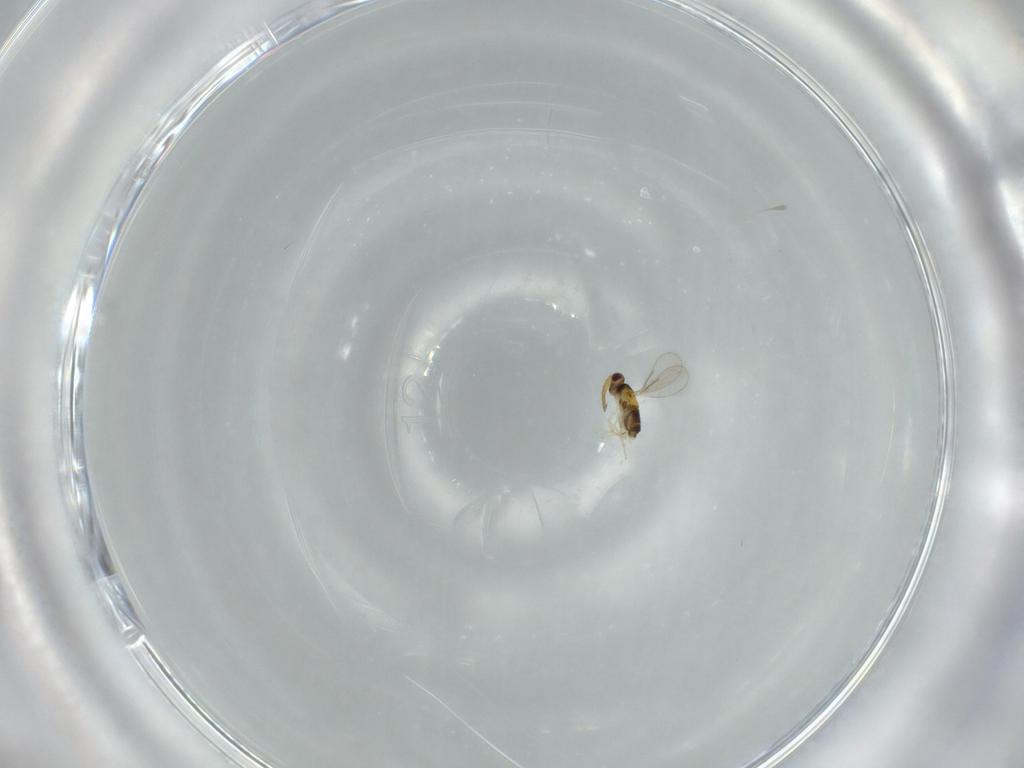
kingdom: Animalia
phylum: Arthropoda
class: Insecta
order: Hymenoptera
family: Aphelinidae
